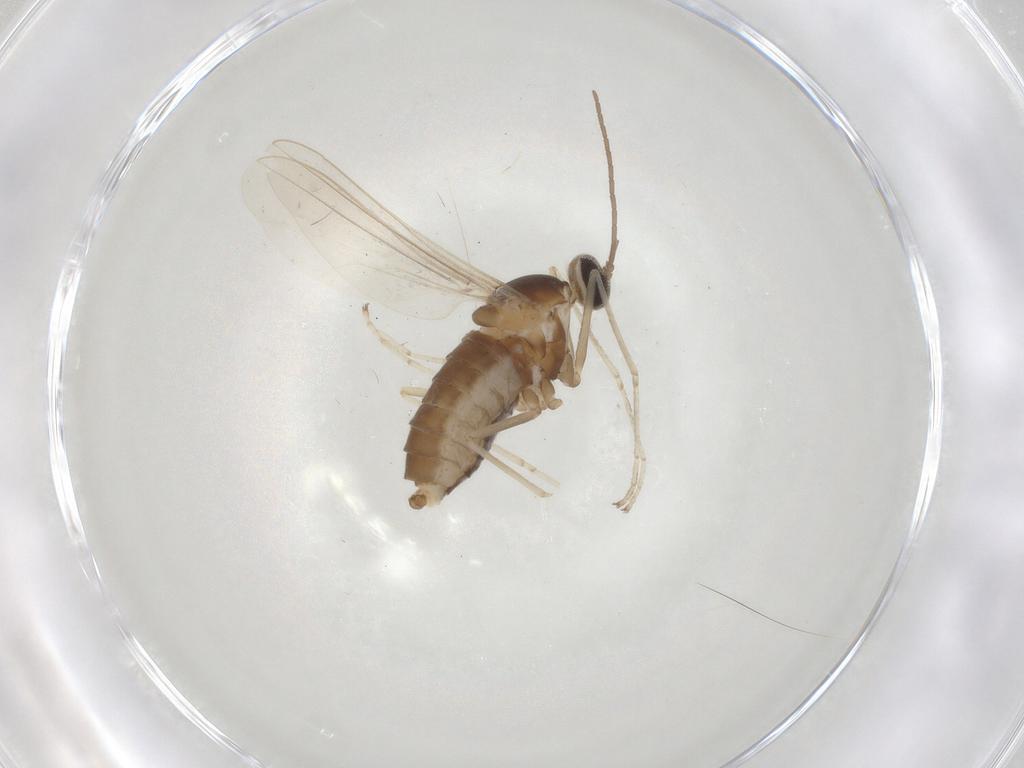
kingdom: Animalia
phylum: Arthropoda
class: Insecta
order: Diptera
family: Cecidomyiidae
